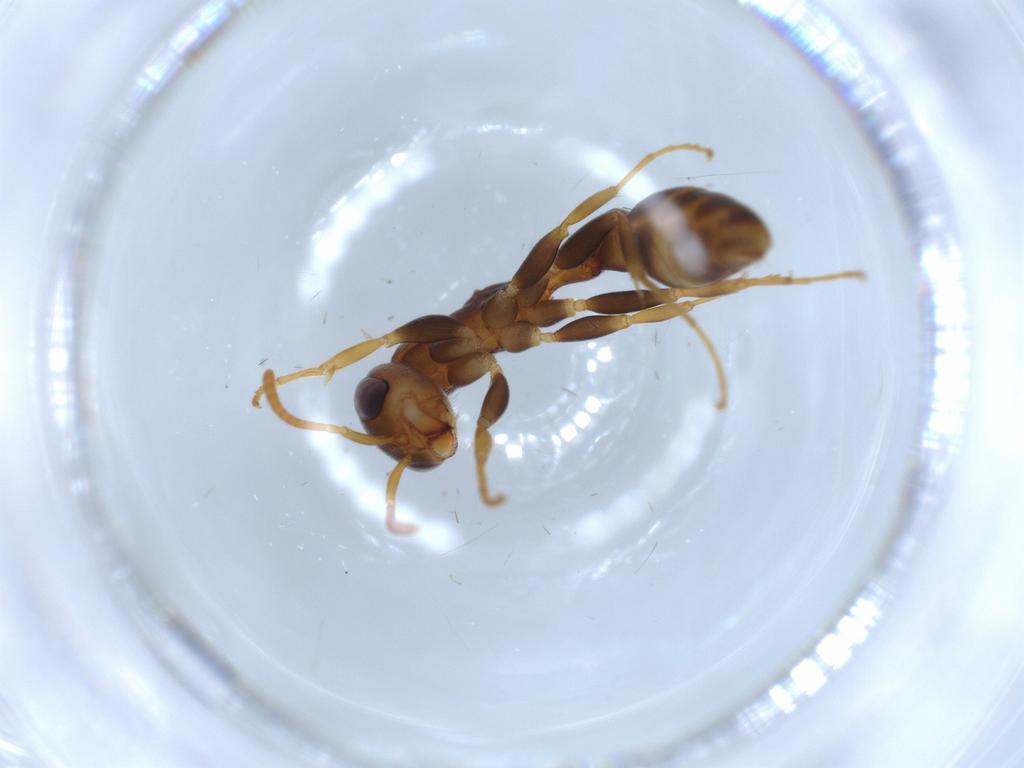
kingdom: Animalia
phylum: Arthropoda
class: Insecta
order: Hymenoptera
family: Formicidae
